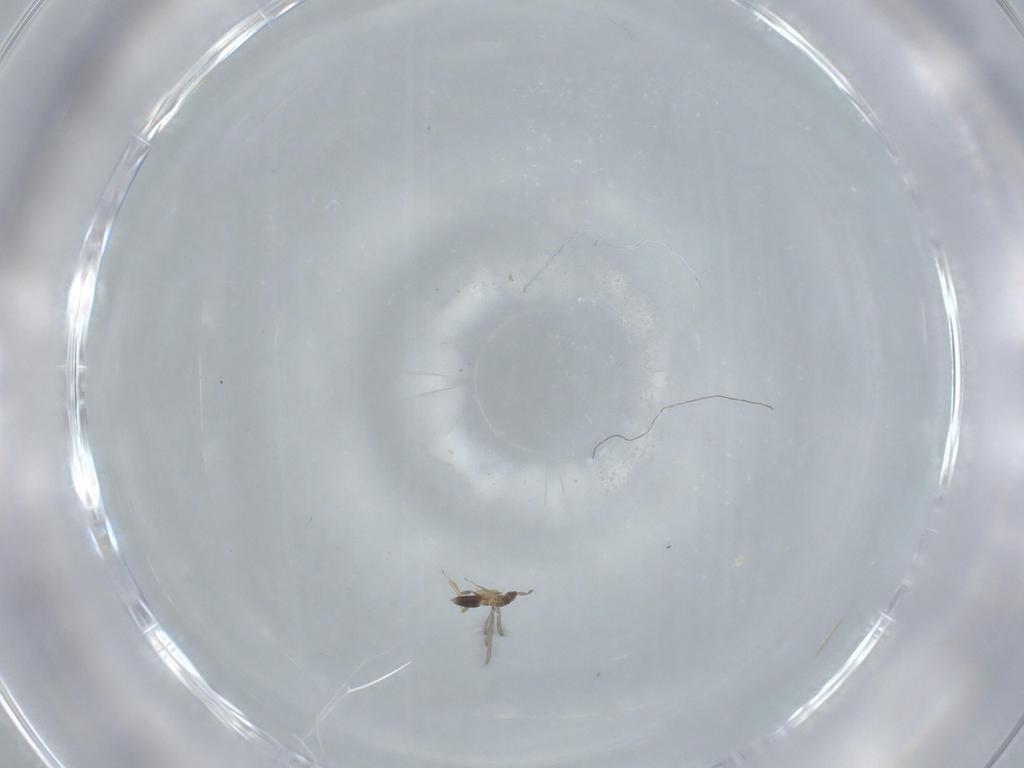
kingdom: Animalia
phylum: Arthropoda
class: Insecta
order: Hymenoptera
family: Mymaridae
